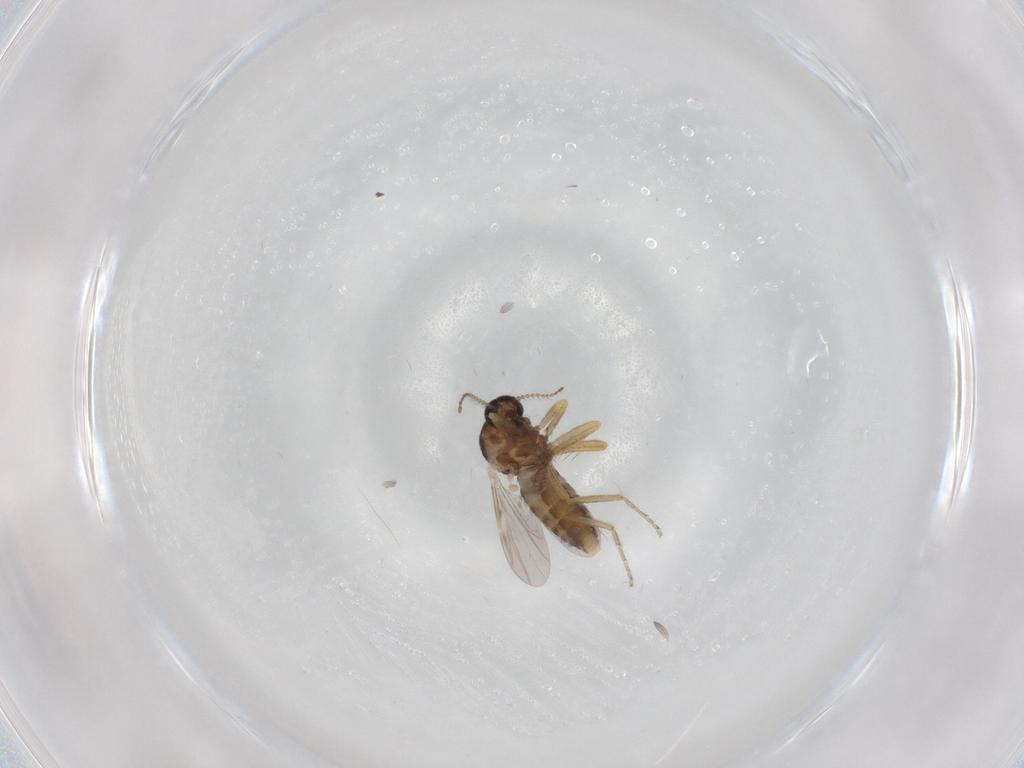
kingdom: Animalia
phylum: Arthropoda
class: Insecta
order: Diptera
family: Ceratopogonidae
